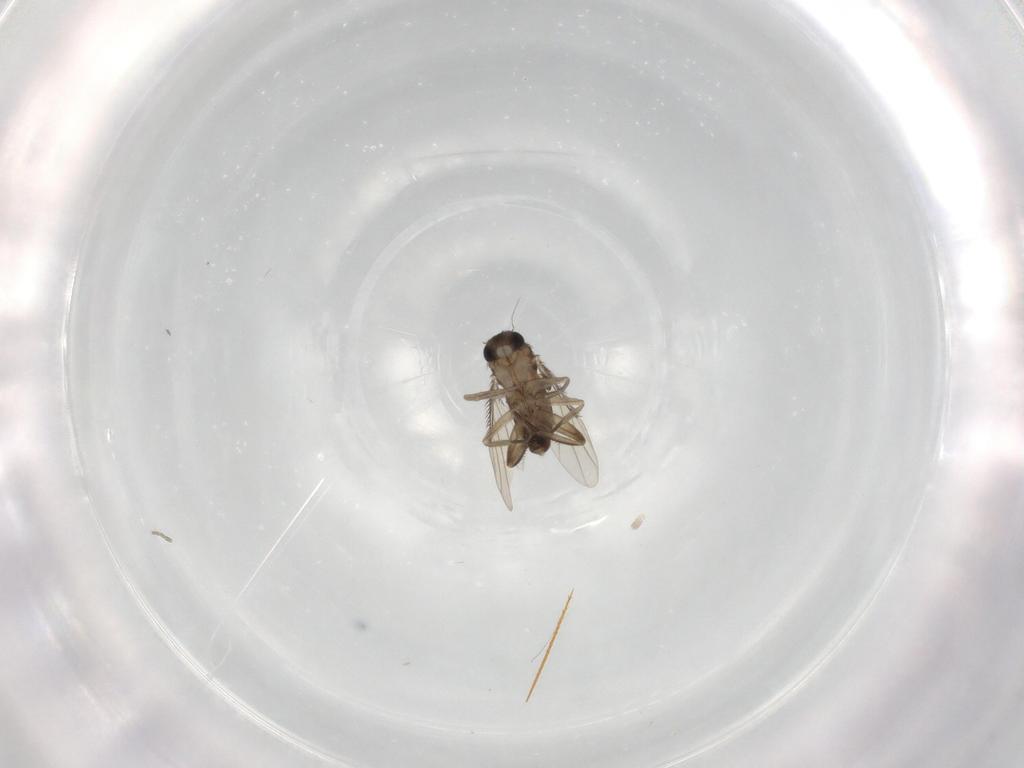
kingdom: Animalia
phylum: Arthropoda
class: Insecta
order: Diptera
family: Phoridae
